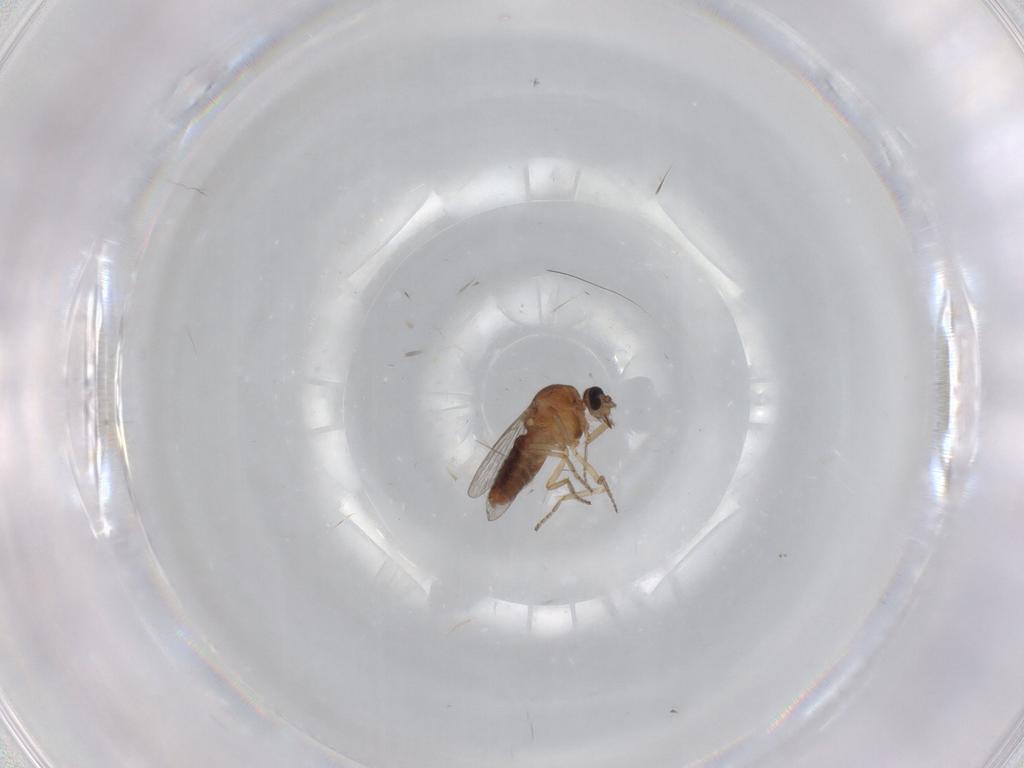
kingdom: Animalia
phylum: Arthropoda
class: Insecta
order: Diptera
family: Ceratopogonidae
